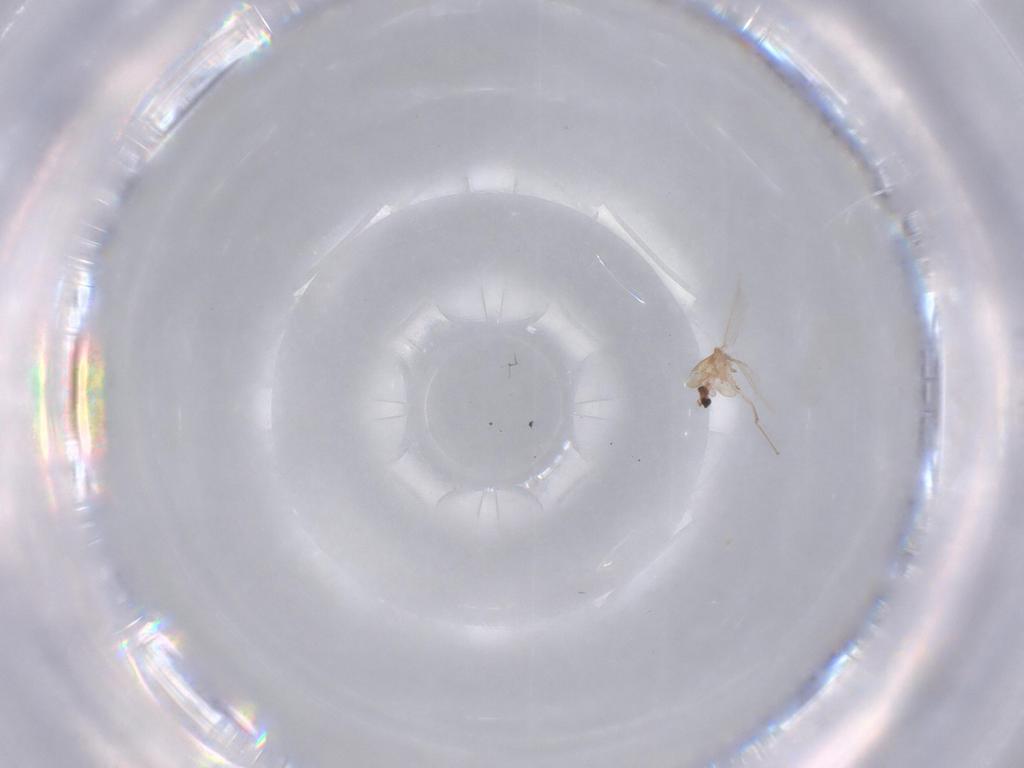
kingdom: Animalia
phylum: Arthropoda
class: Insecta
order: Diptera
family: Chironomidae
